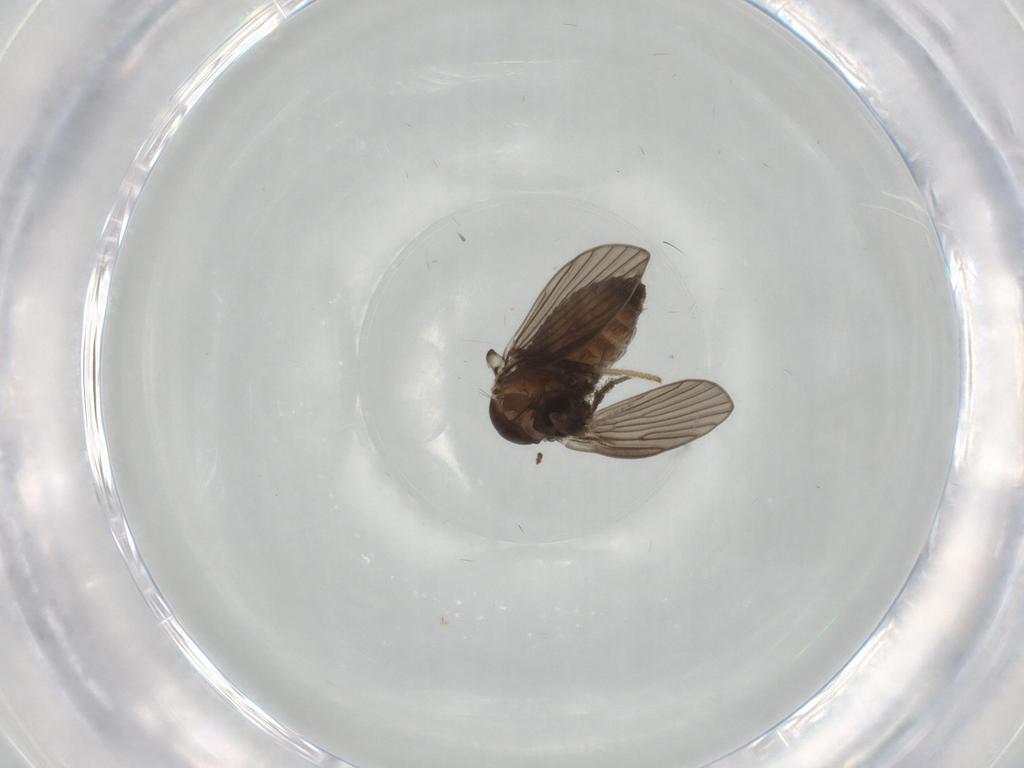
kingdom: Animalia
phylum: Arthropoda
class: Insecta
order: Diptera
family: Psychodidae
